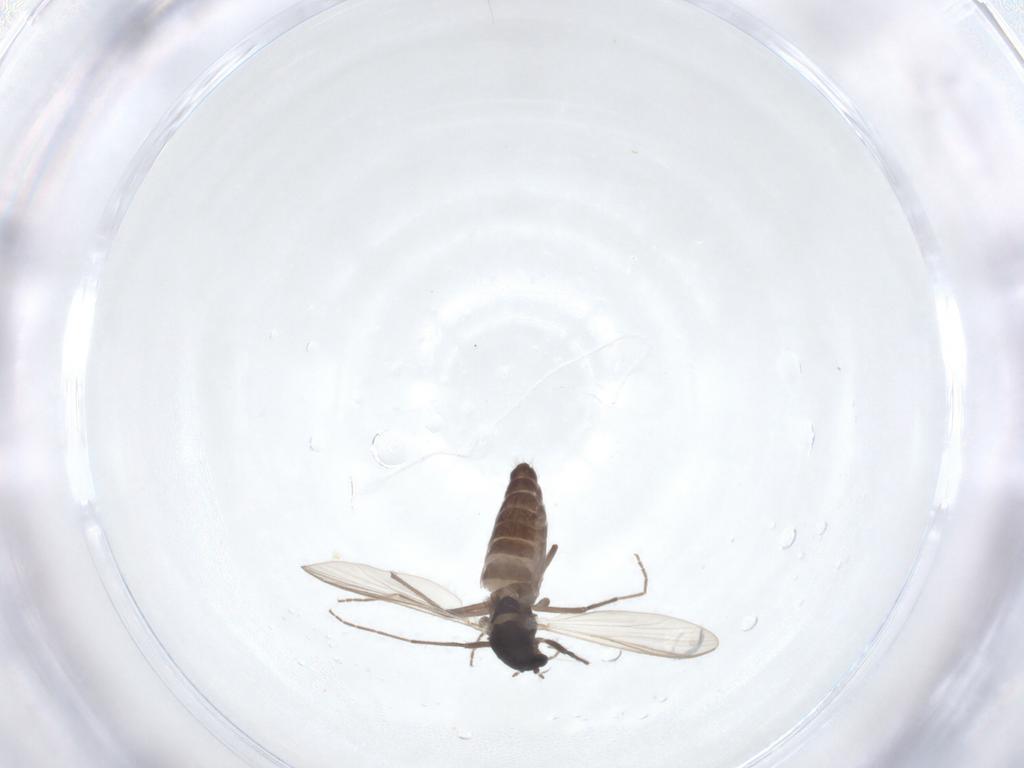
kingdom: Animalia
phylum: Arthropoda
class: Insecta
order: Diptera
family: Chironomidae
